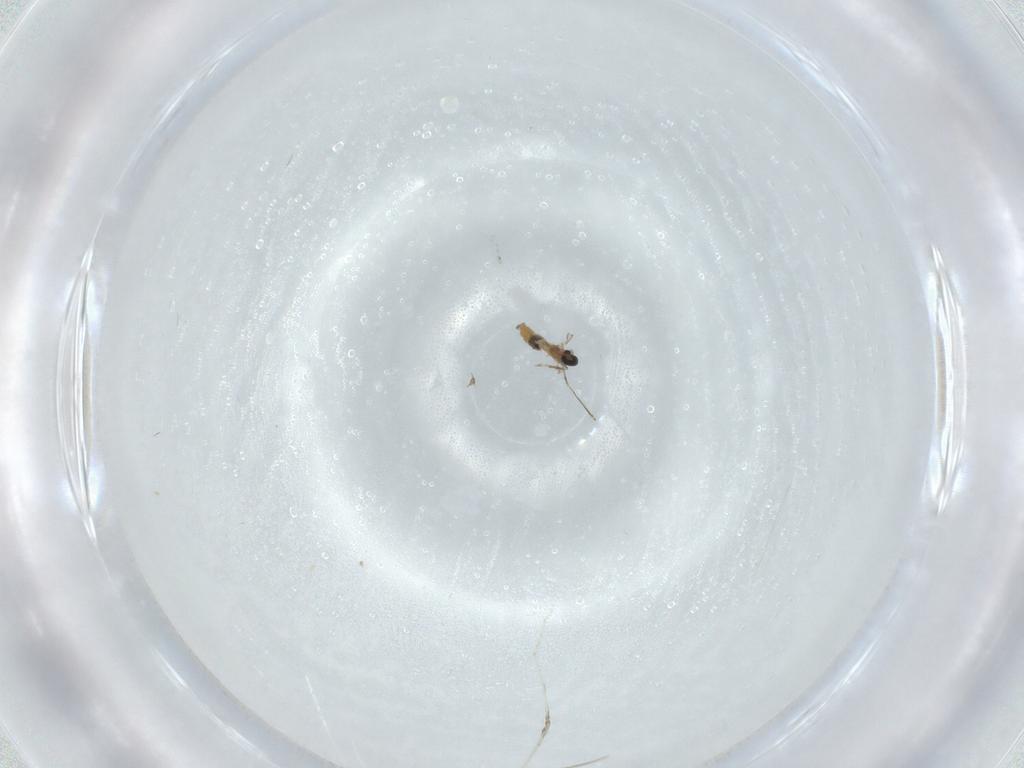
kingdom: Animalia
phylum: Arthropoda
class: Insecta
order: Diptera
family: Cecidomyiidae
